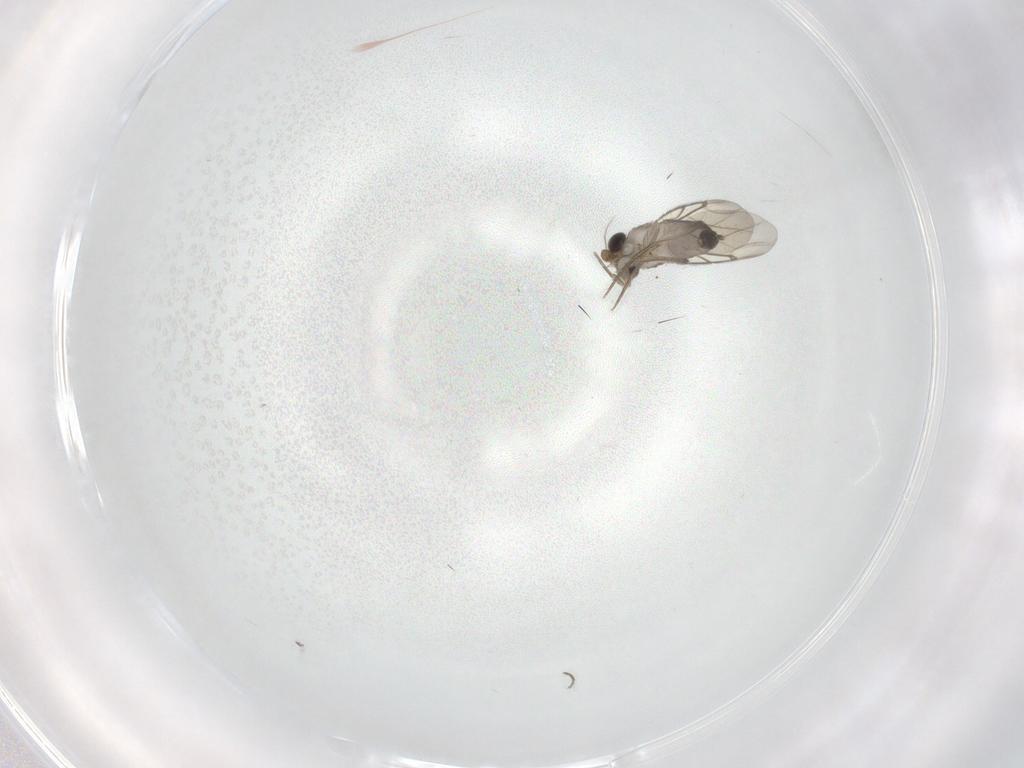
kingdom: Animalia
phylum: Arthropoda
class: Insecta
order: Diptera
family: Phoridae
